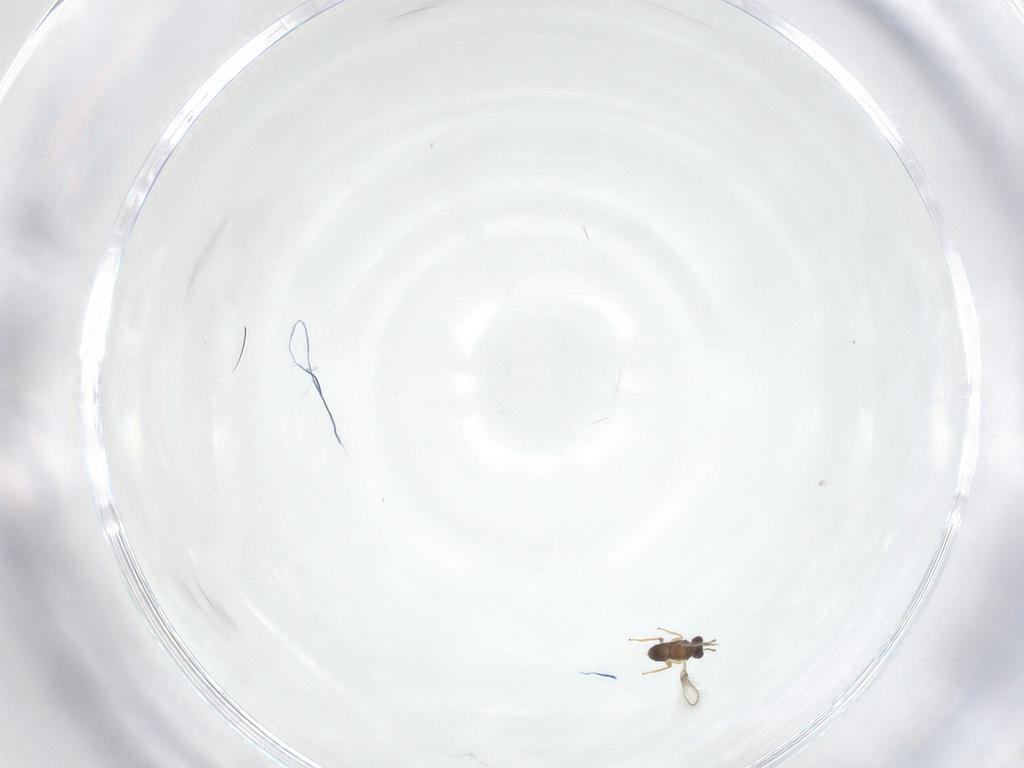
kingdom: Animalia
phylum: Arthropoda
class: Insecta
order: Hymenoptera
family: Mymaridae
